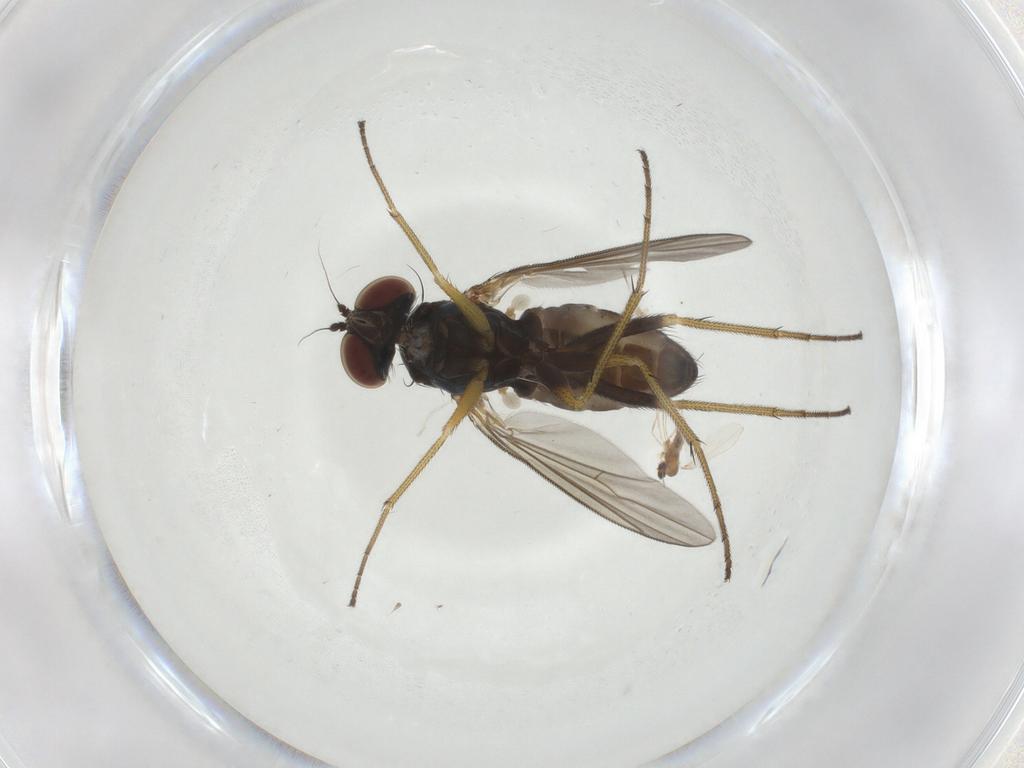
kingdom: Animalia
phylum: Arthropoda
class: Insecta
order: Diptera
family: Dolichopodidae
